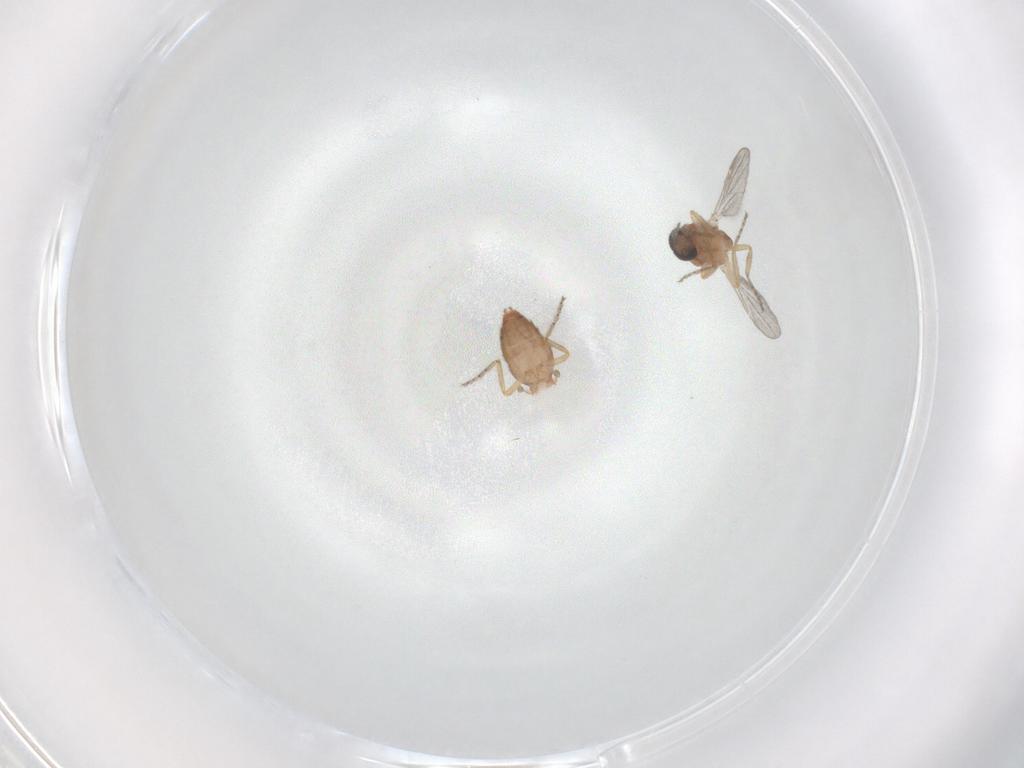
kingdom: Animalia
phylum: Arthropoda
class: Insecta
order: Diptera
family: Ceratopogonidae
